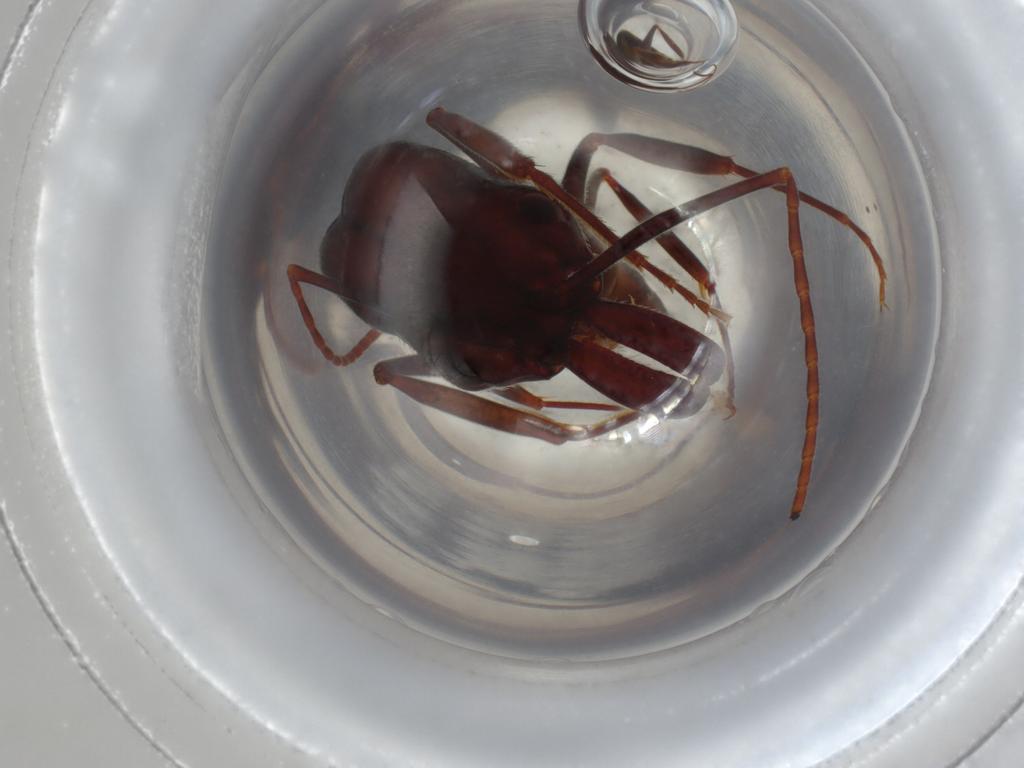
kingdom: Animalia
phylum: Arthropoda
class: Insecta
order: Hymenoptera
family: Formicidae
